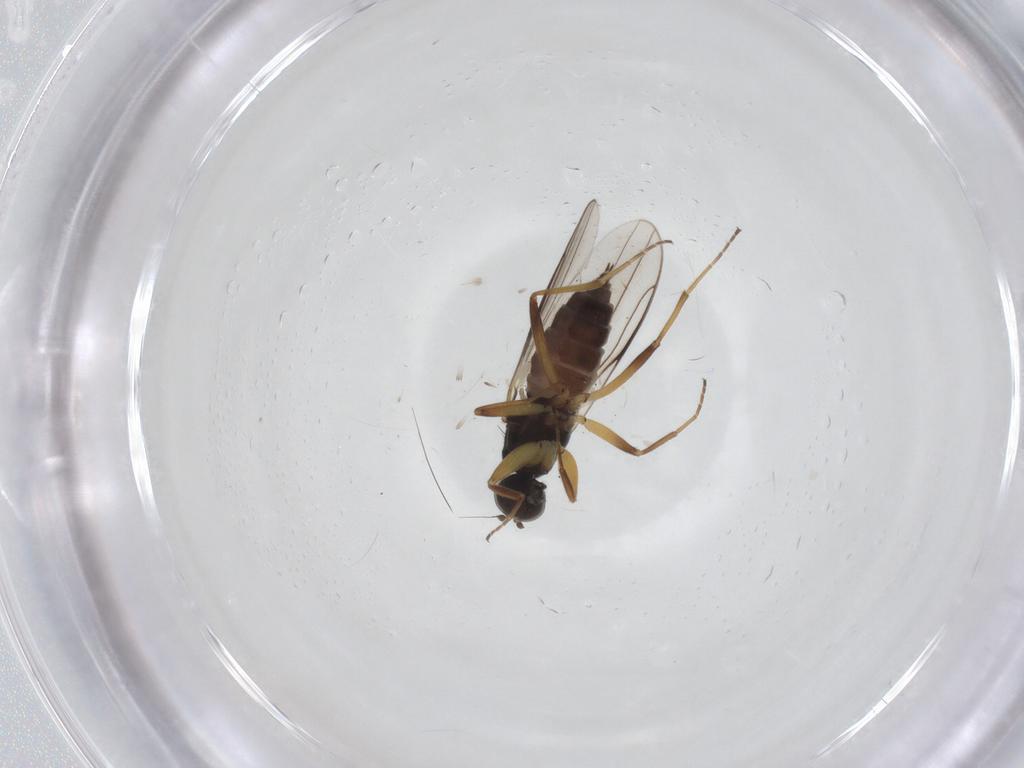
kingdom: Animalia
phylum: Arthropoda
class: Insecta
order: Diptera
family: Hybotidae
